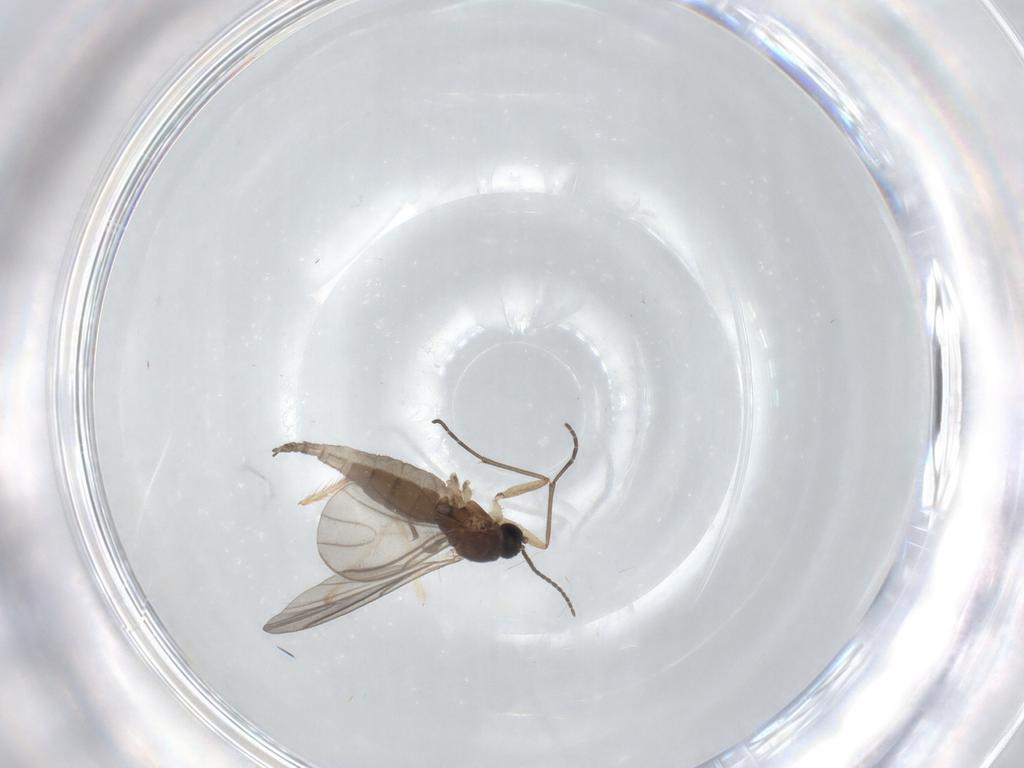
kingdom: Animalia
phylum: Arthropoda
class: Insecta
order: Diptera
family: Sciaridae
